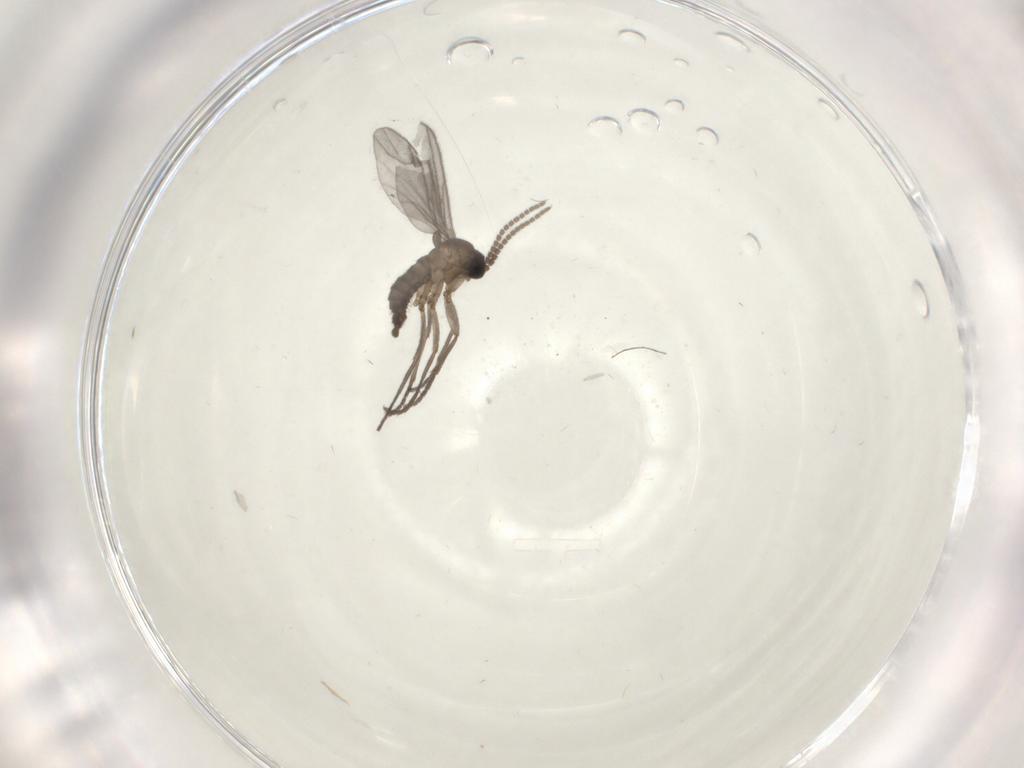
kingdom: Animalia
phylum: Arthropoda
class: Insecta
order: Diptera
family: Sciaridae
